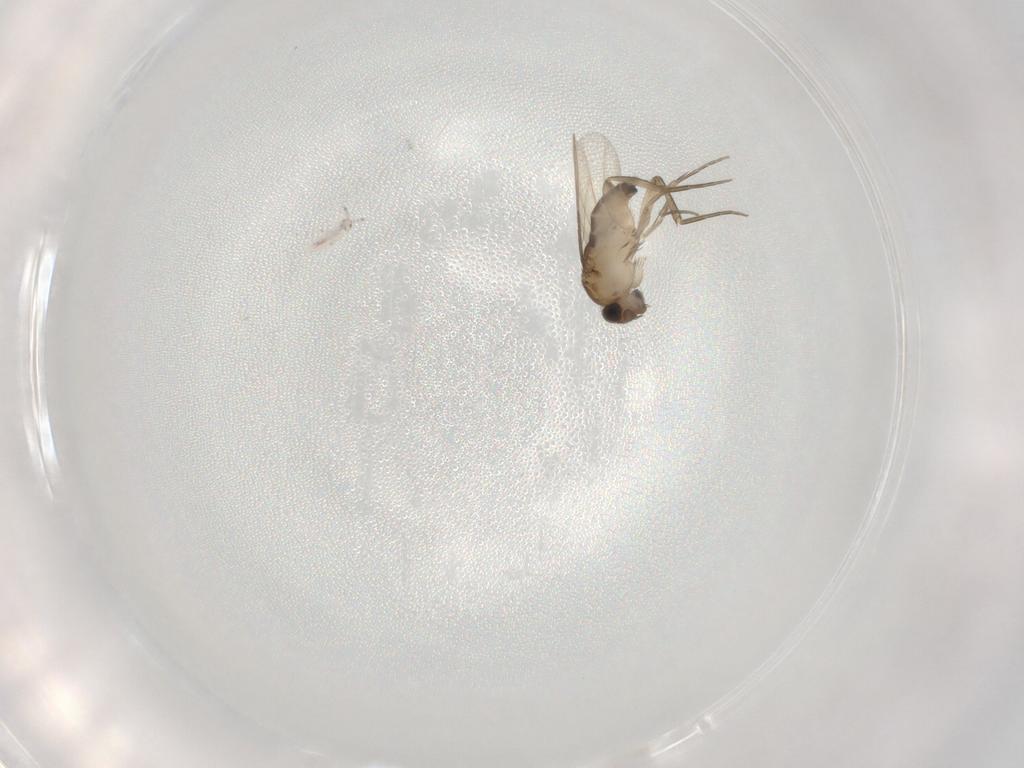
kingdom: Animalia
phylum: Arthropoda
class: Insecta
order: Diptera
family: Phoridae
